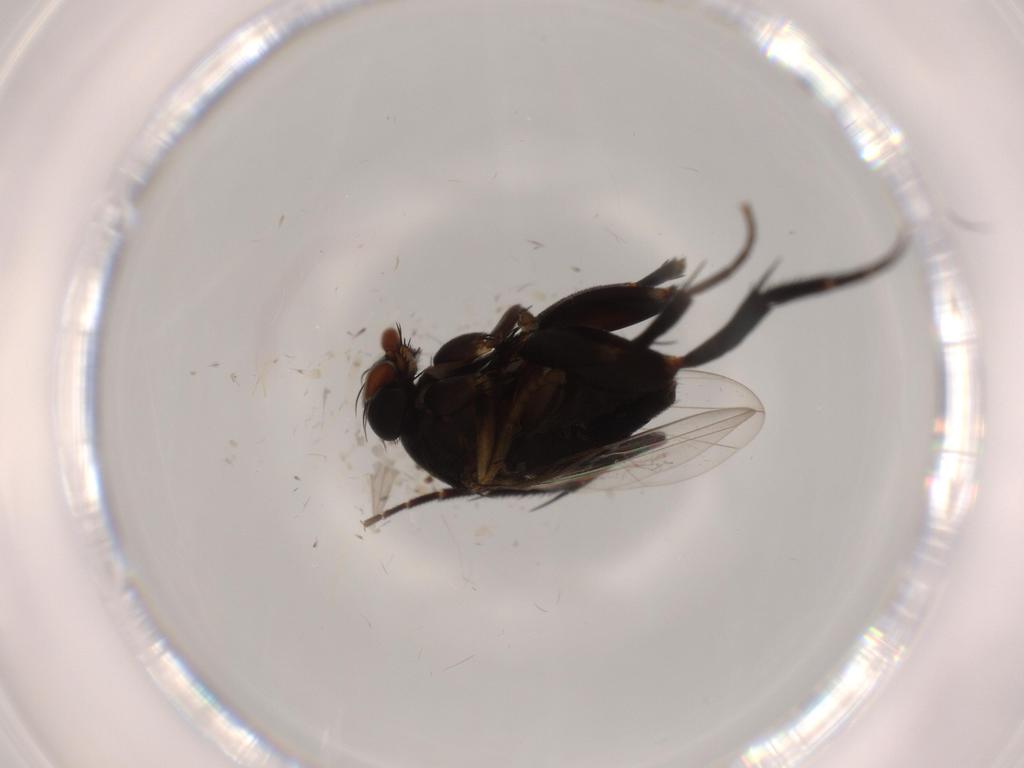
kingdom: Animalia
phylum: Arthropoda
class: Insecta
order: Diptera
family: Phoridae
